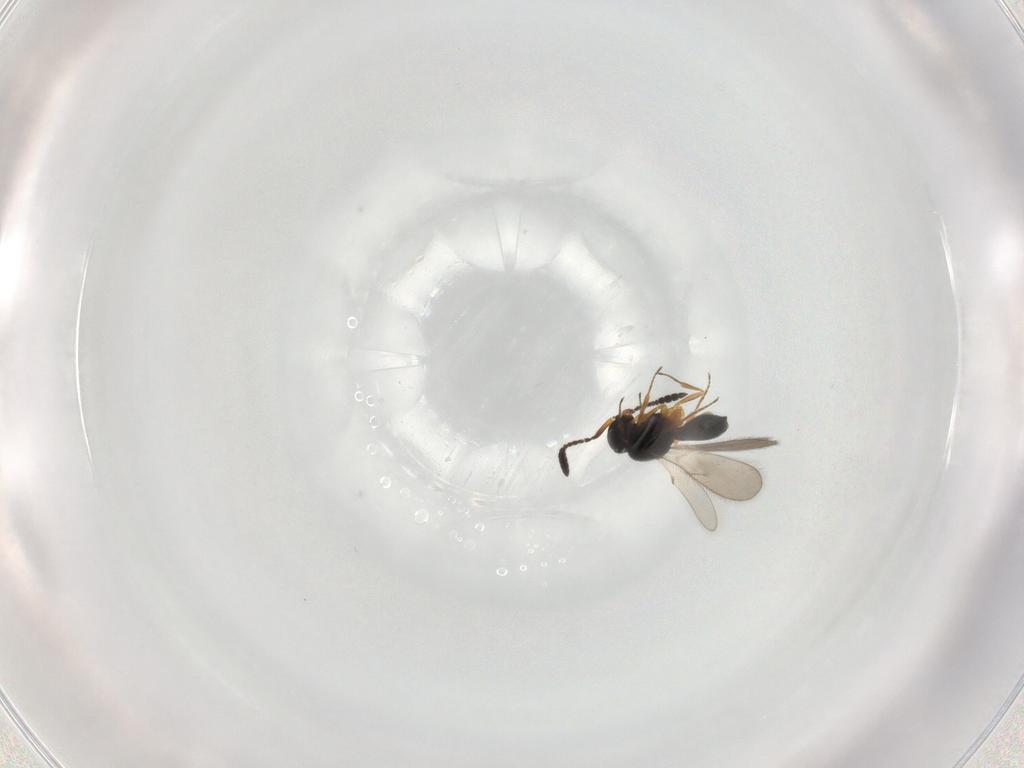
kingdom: Animalia
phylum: Arthropoda
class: Insecta
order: Hymenoptera
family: Scelionidae
